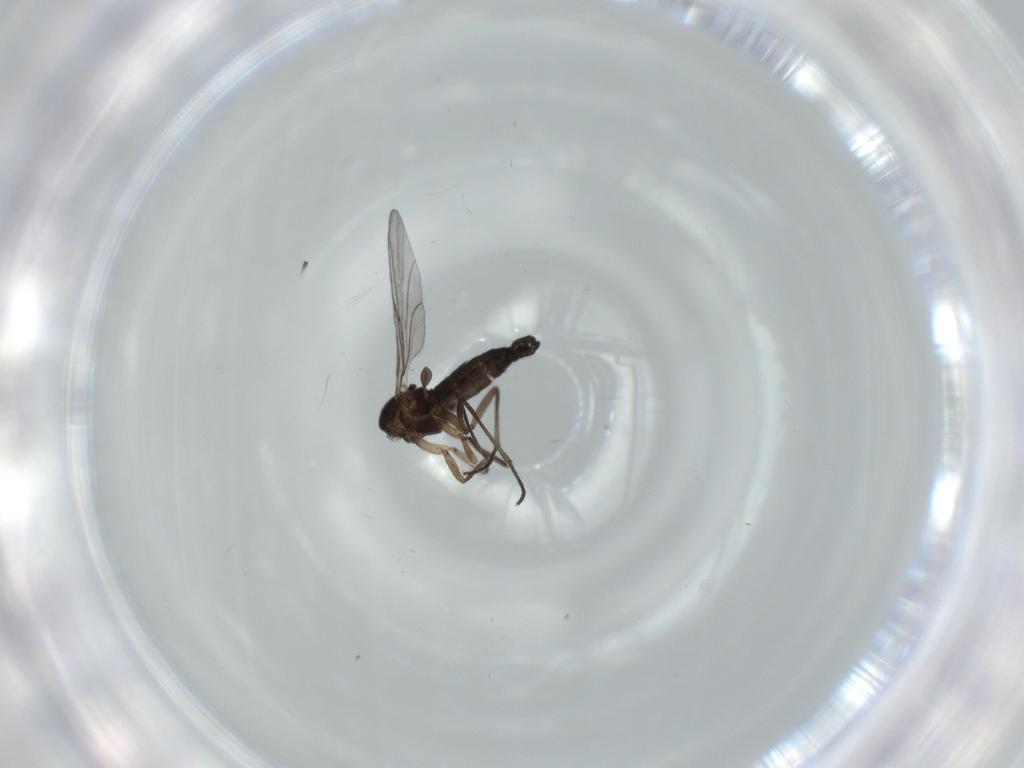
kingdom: Animalia
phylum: Arthropoda
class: Insecta
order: Diptera
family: Sciaridae
